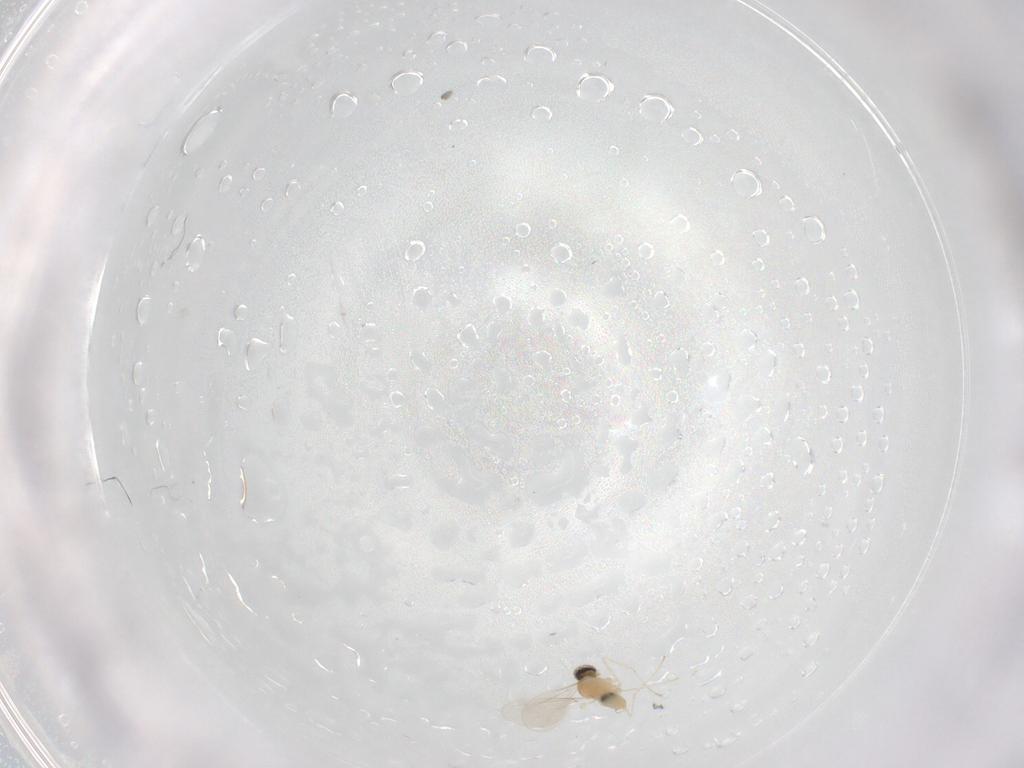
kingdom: Animalia
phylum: Arthropoda
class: Insecta
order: Diptera
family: Cecidomyiidae
